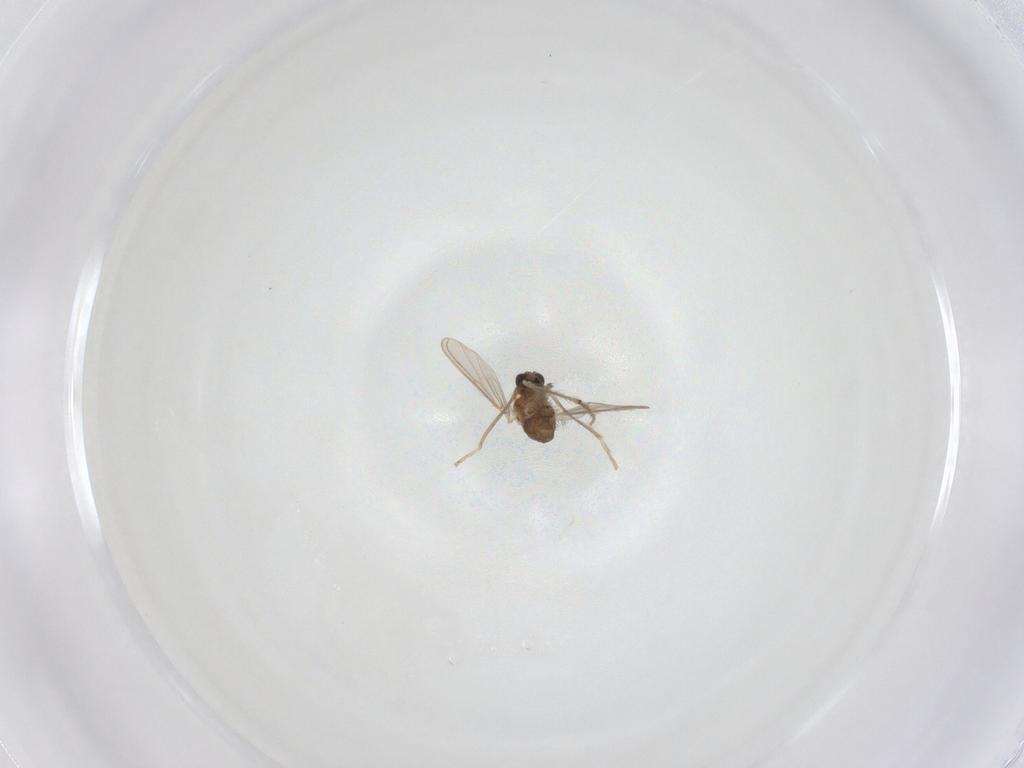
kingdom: Animalia
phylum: Arthropoda
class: Insecta
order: Diptera
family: Chironomidae
